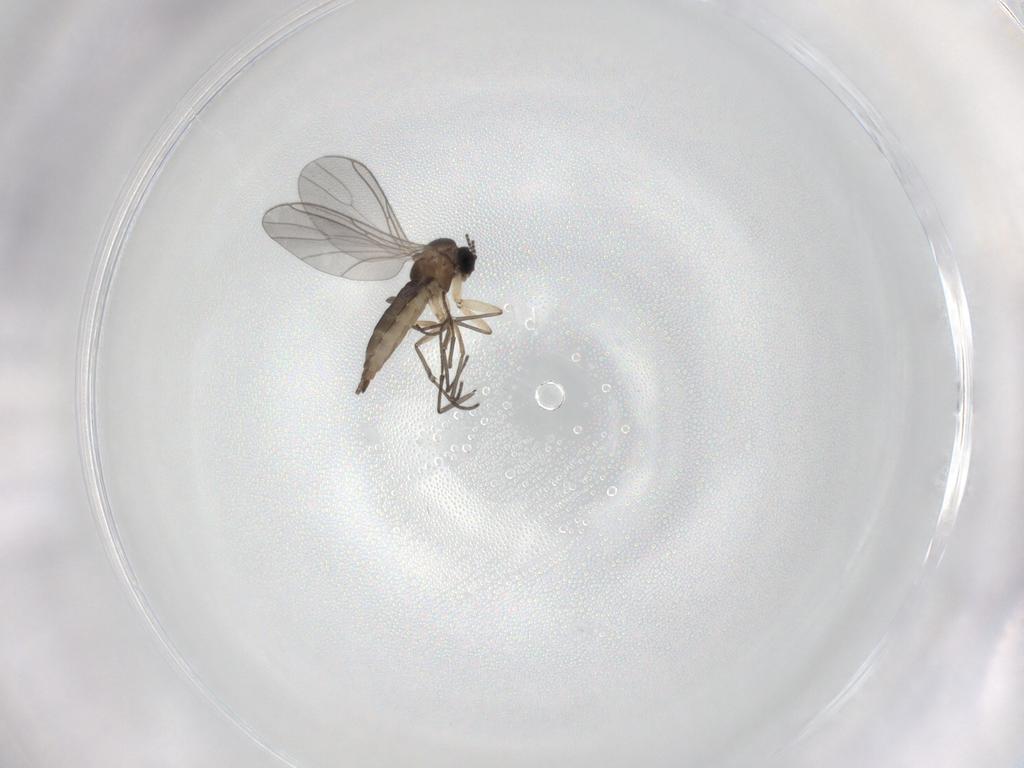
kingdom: Animalia
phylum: Arthropoda
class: Insecta
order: Diptera
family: Sciaridae
